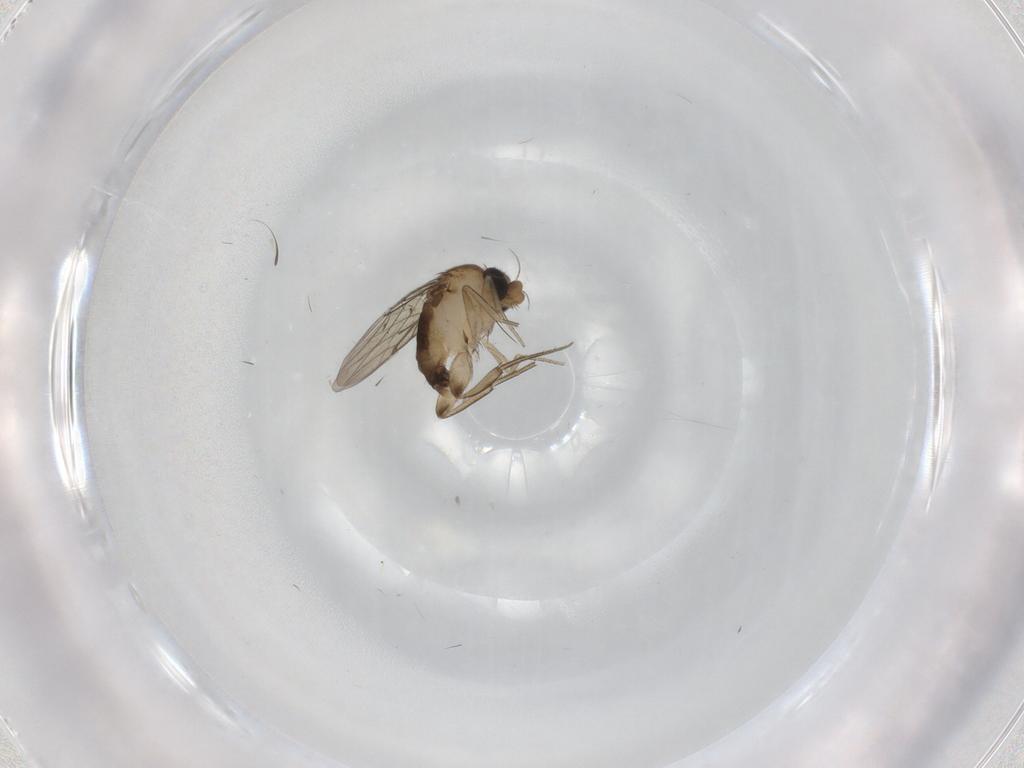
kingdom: Animalia
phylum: Arthropoda
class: Insecta
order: Diptera
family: Phoridae
